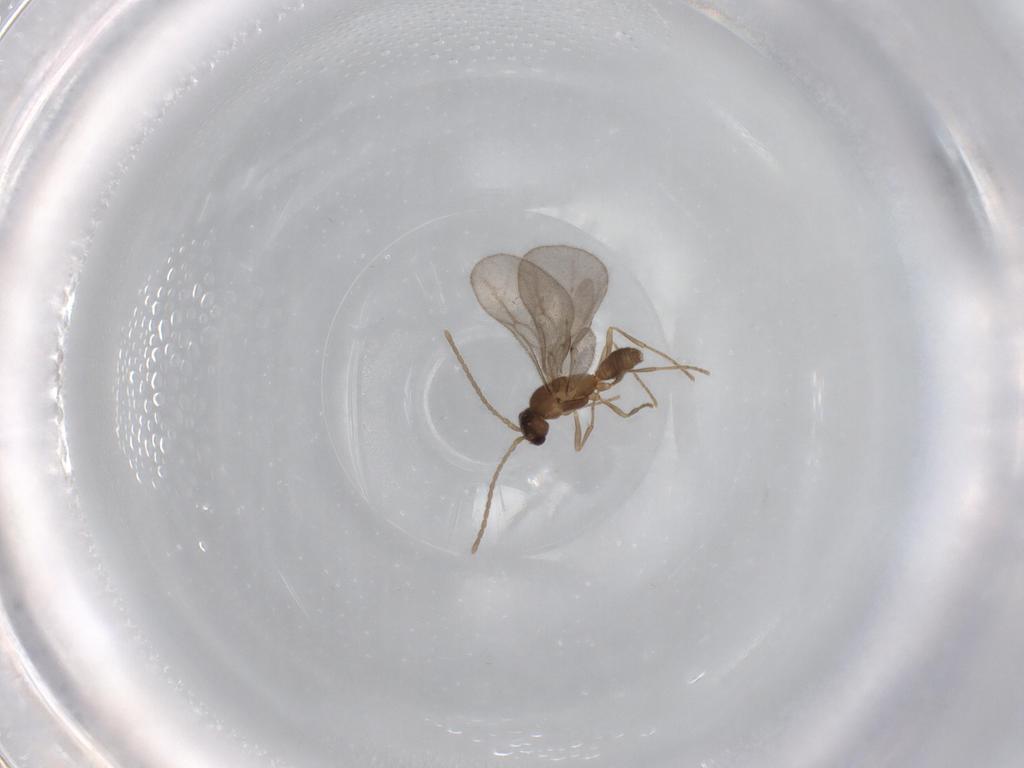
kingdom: Animalia
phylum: Arthropoda
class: Insecta
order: Hymenoptera
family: Formicidae
